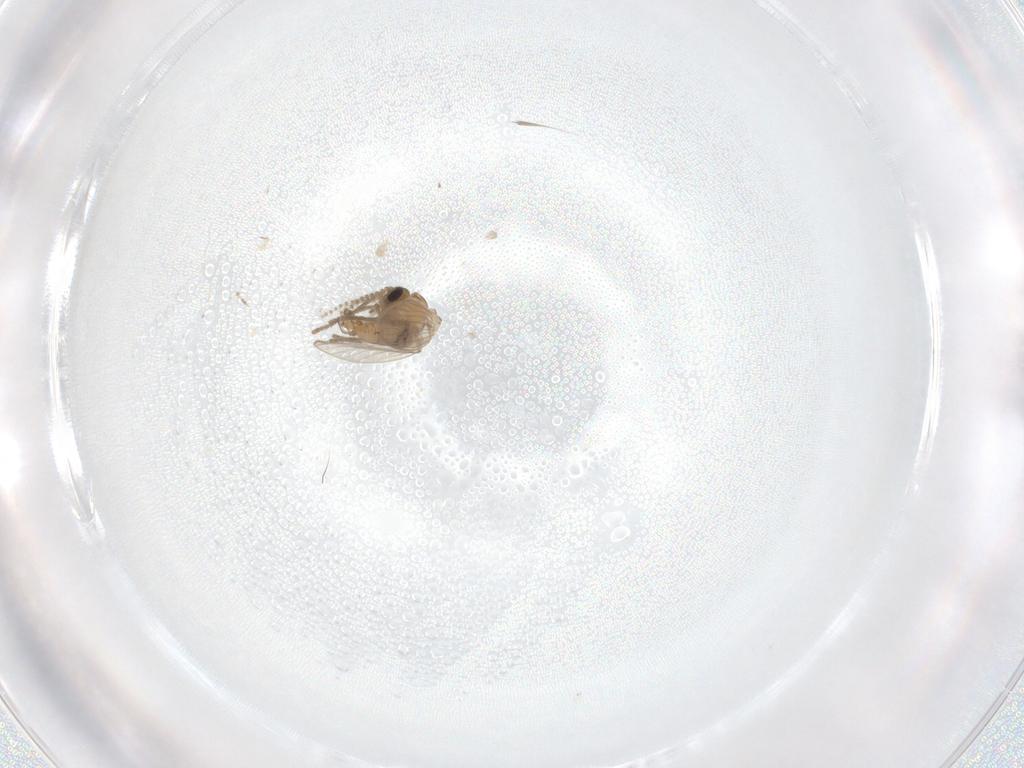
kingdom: Animalia
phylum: Arthropoda
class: Insecta
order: Diptera
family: Psychodidae
